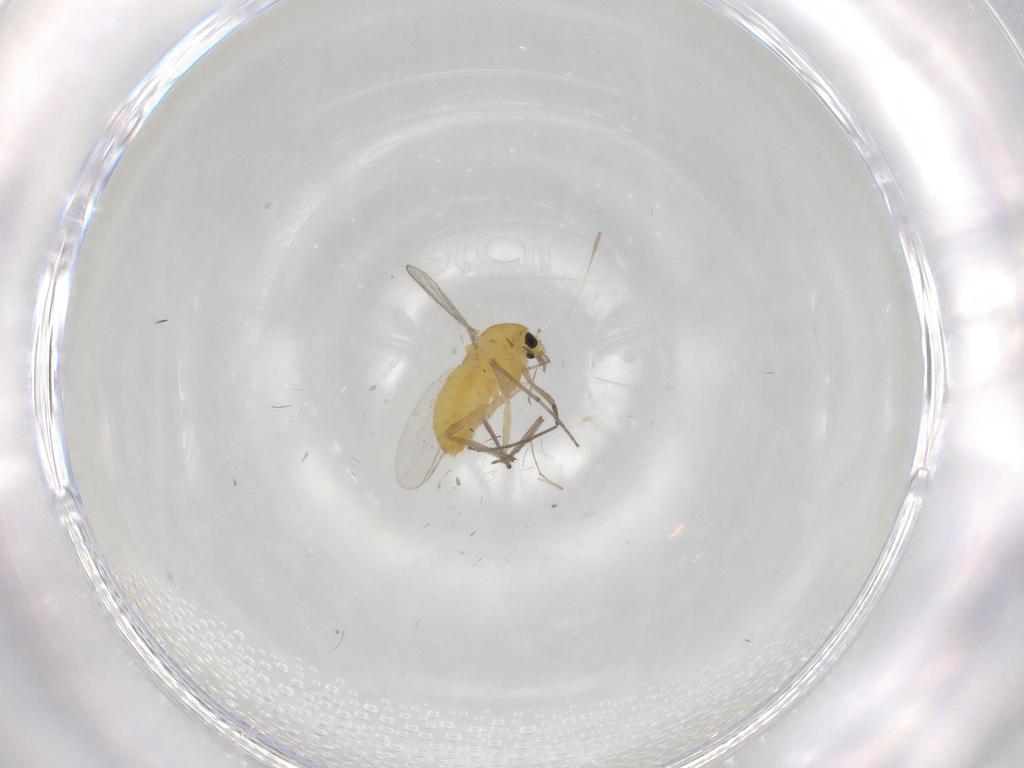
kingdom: Animalia
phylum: Arthropoda
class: Insecta
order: Diptera
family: Chironomidae
